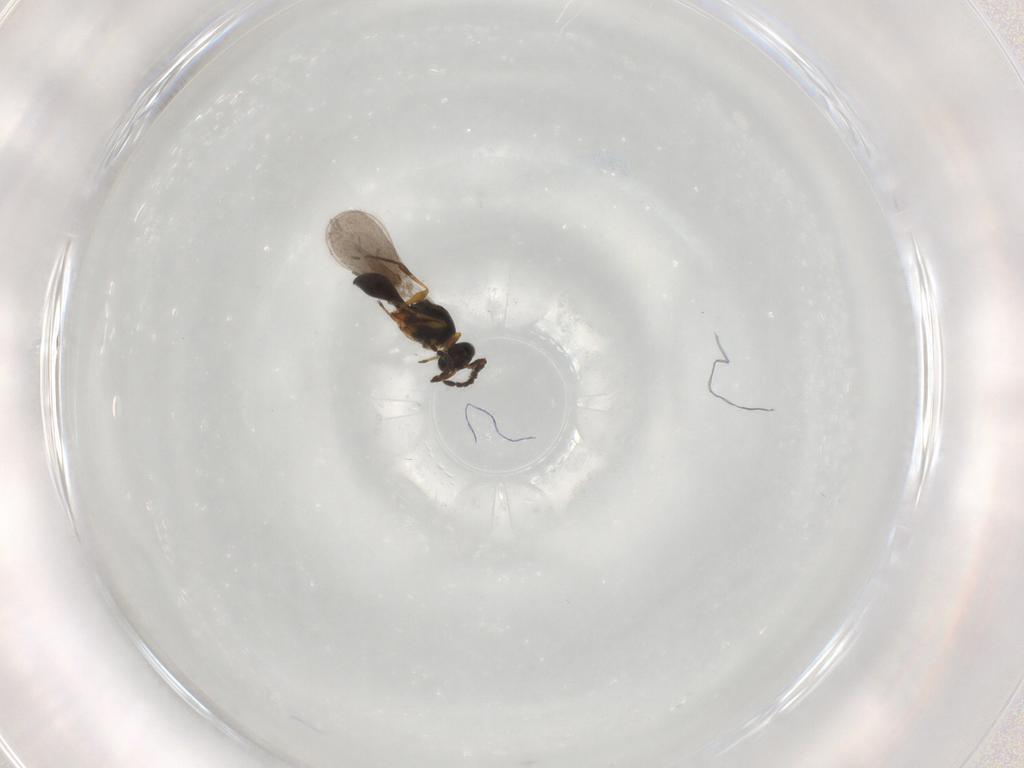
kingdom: Animalia
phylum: Arthropoda
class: Insecta
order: Hymenoptera
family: Platygastridae
